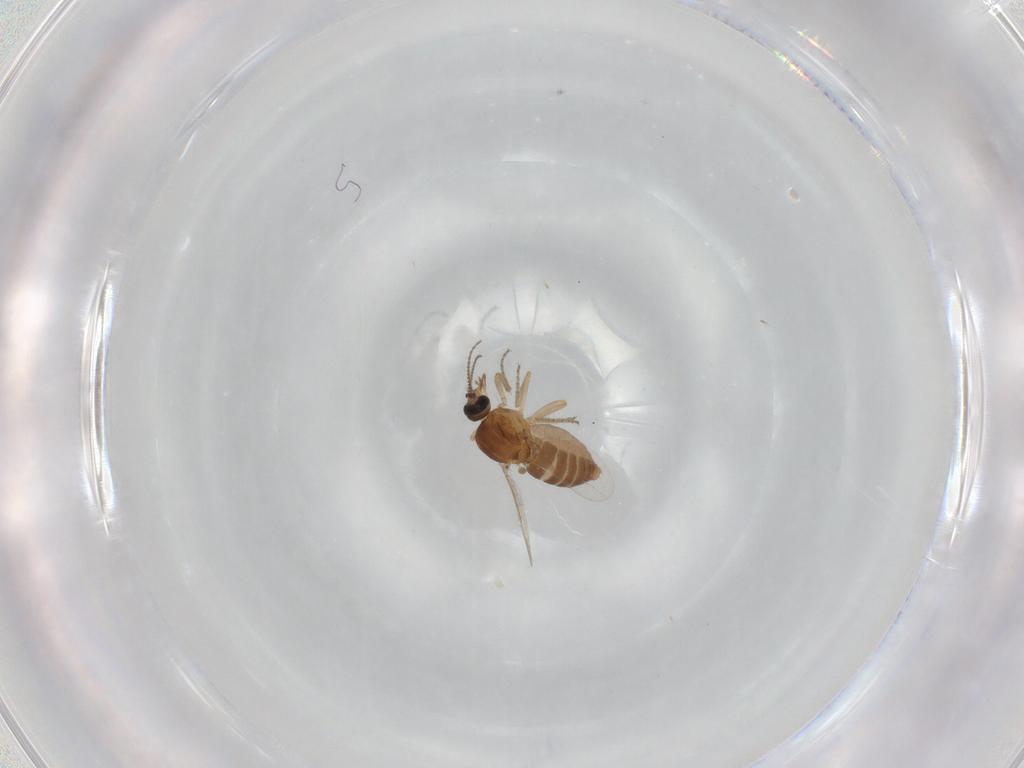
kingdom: Animalia
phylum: Arthropoda
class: Insecta
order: Diptera
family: Ceratopogonidae
